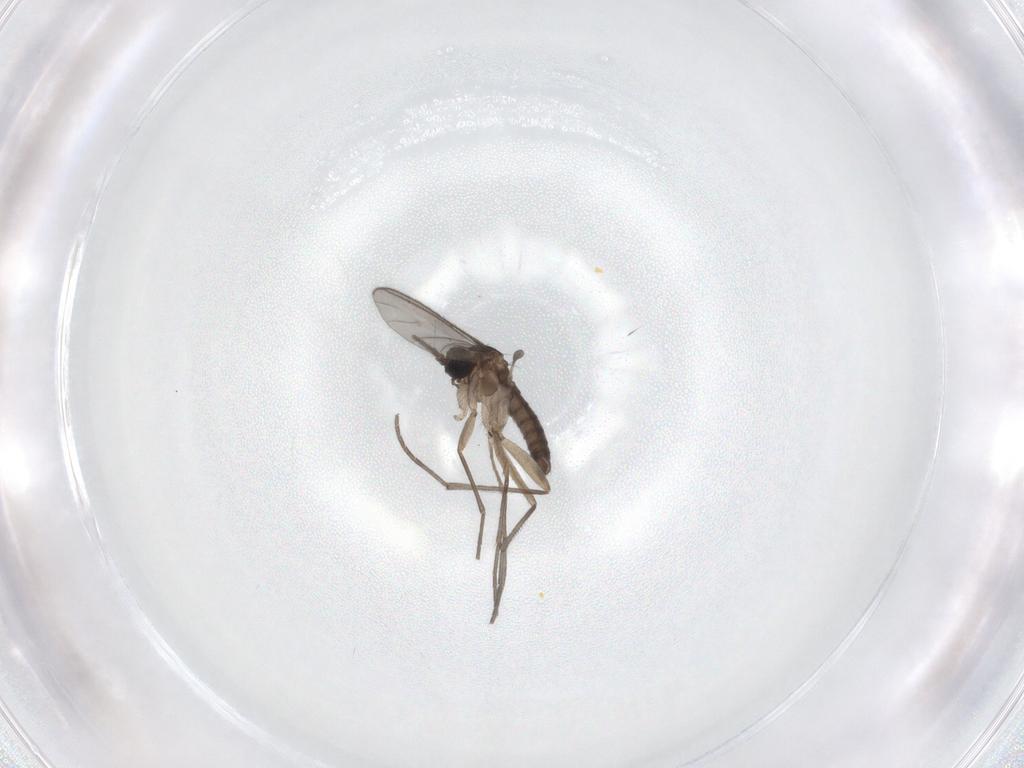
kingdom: Animalia
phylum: Arthropoda
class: Insecta
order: Diptera
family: Sciaridae
